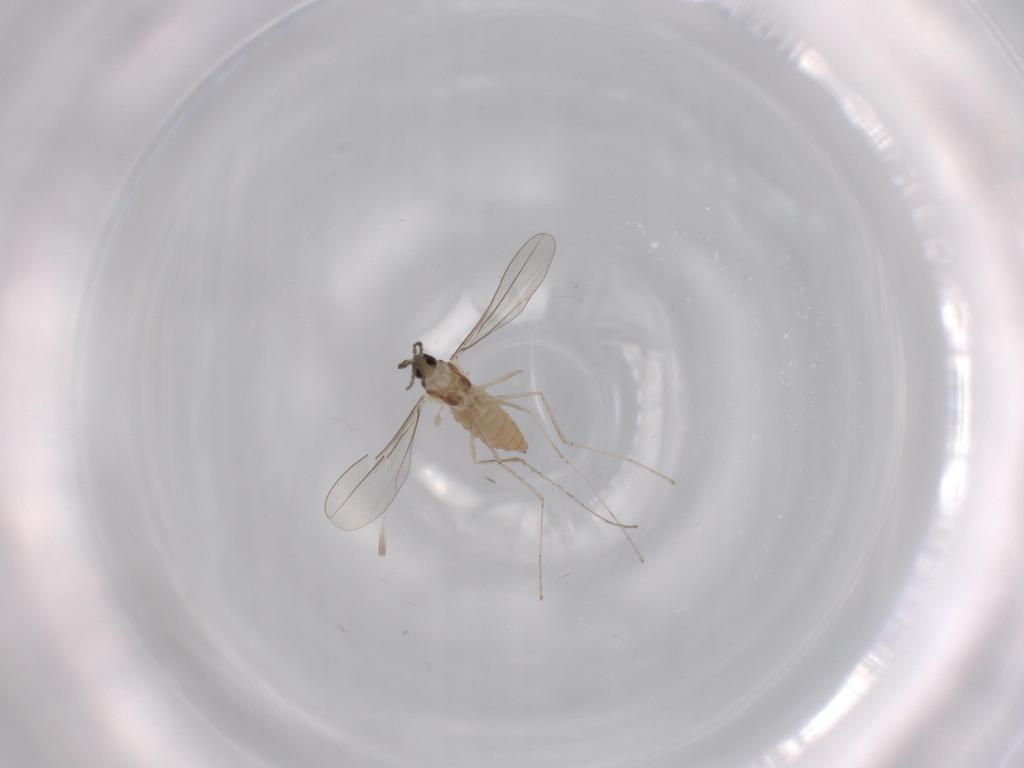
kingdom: Animalia
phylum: Arthropoda
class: Insecta
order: Diptera
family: Cecidomyiidae
